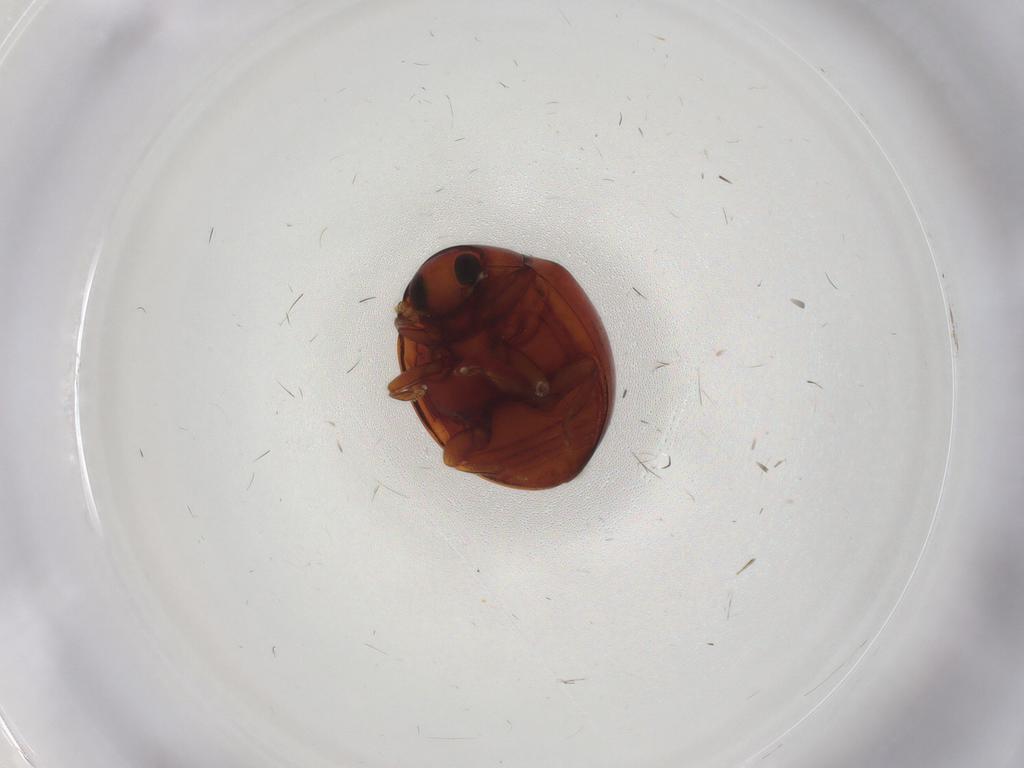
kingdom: Animalia
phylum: Arthropoda
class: Insecta
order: Coleoptera
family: Coccinellidae
